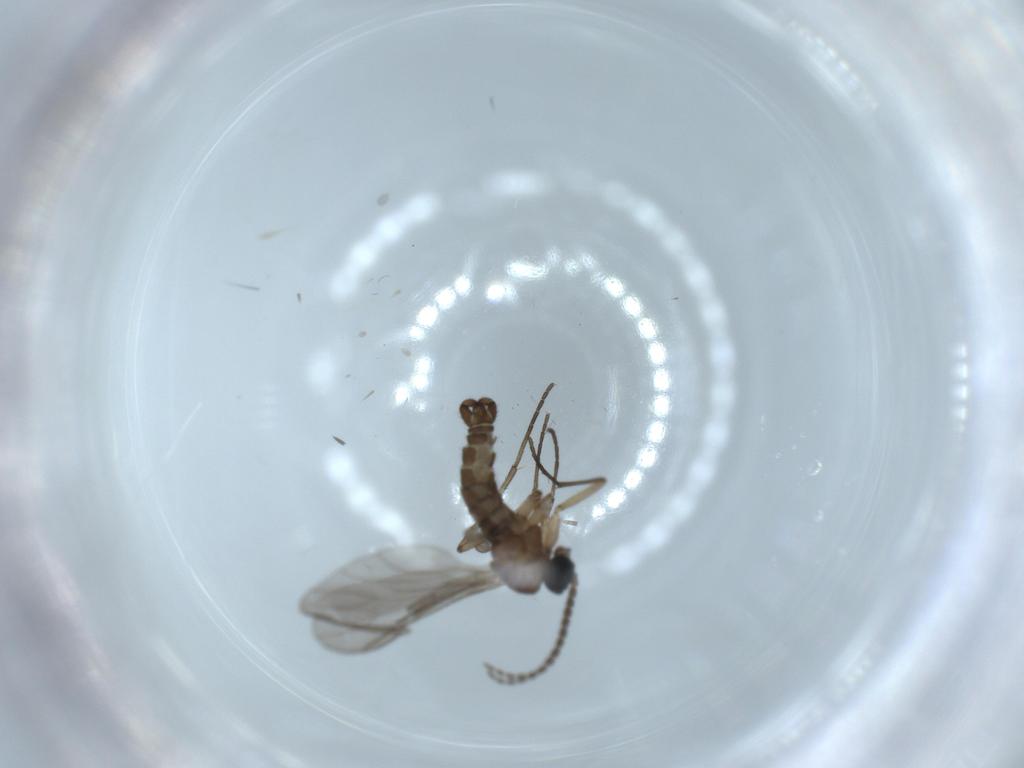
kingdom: Animalia
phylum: Arthropoda
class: Insecta
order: Diptera
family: Sciaridae
